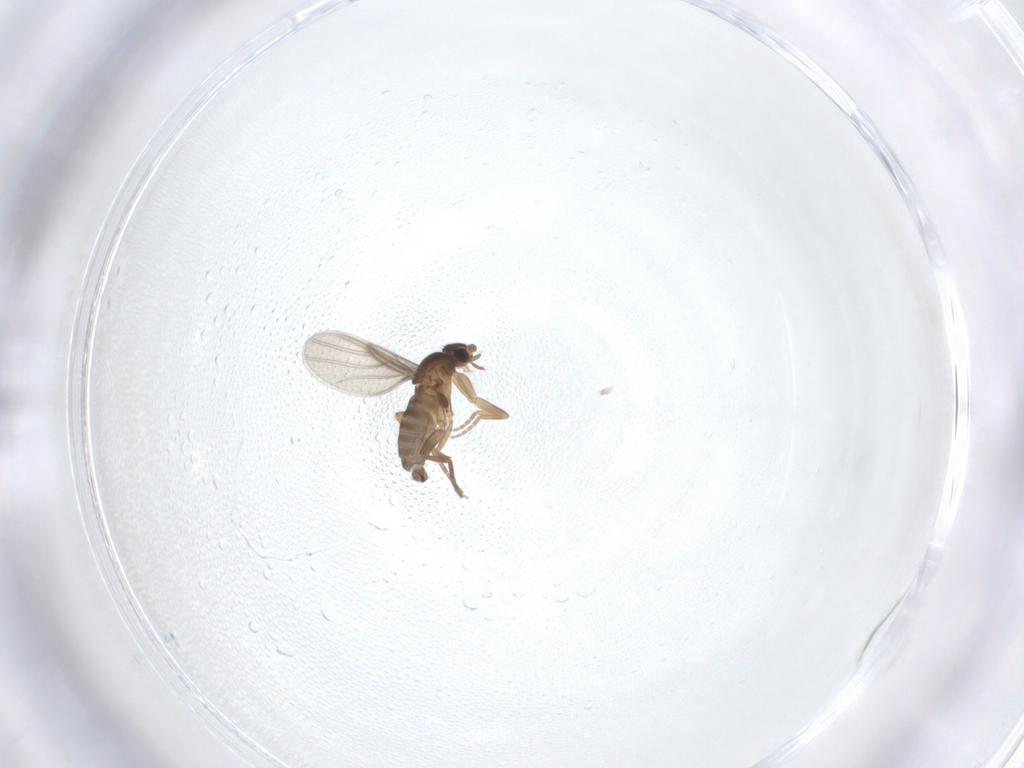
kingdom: Animalia
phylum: Arthropoda
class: Insecta
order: Diptera
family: Phoridae
